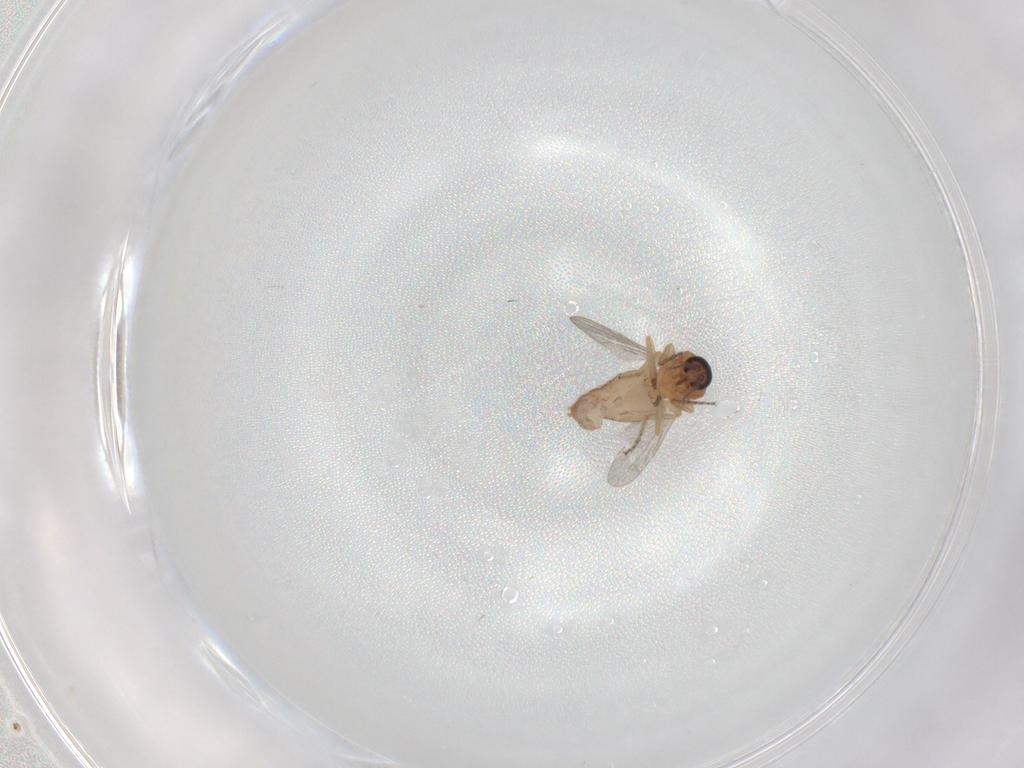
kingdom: Animalia
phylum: Arthropoda
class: Insecta
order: Diptera
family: Ceratopogonidae
